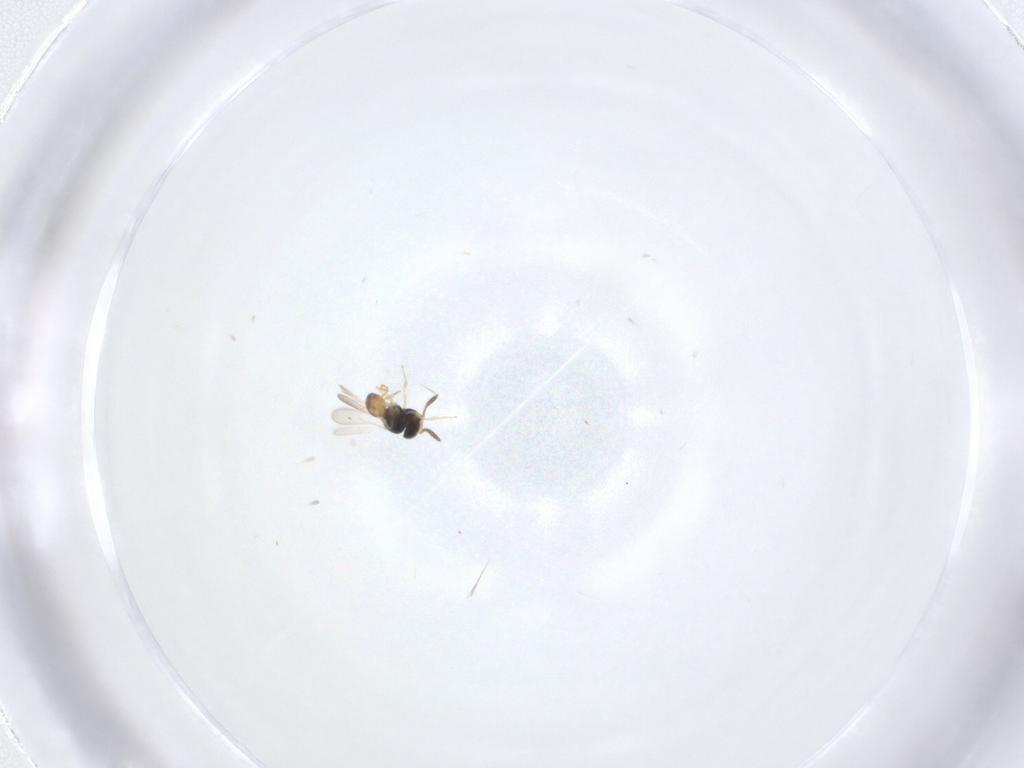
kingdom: Animalia
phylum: Arthropoda
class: Insecta
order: Hymenoptera
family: Scelionidae
